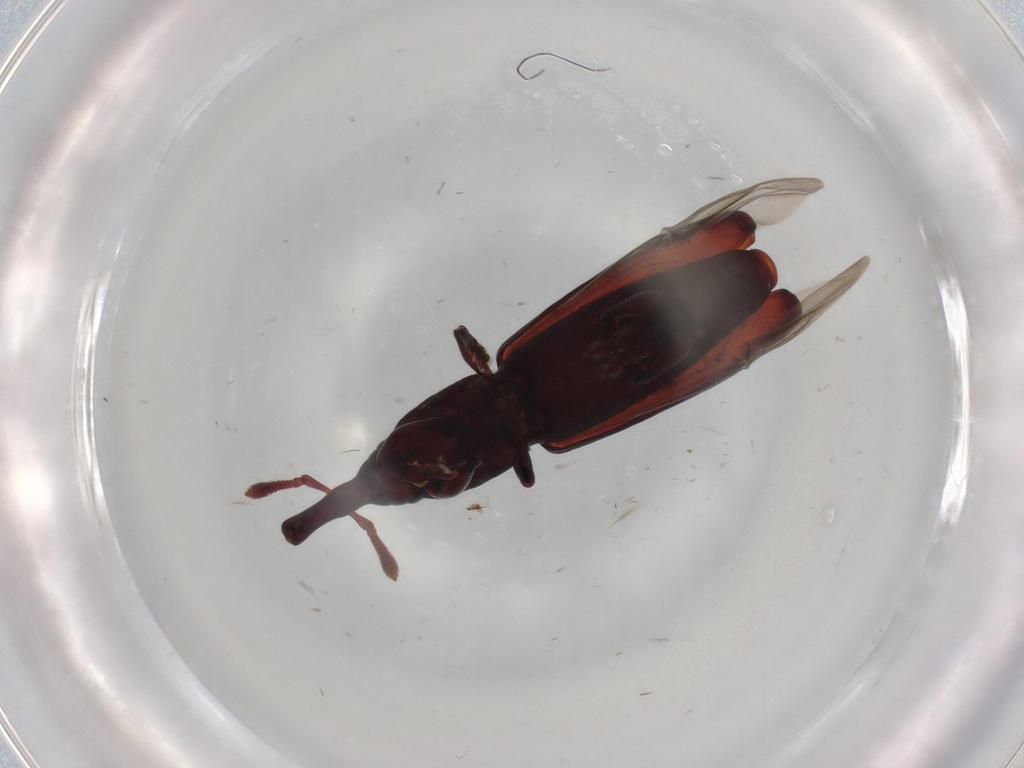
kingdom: Animalia
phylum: Arthropoda
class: Insecta
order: Coleoptera
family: Curculionidae
